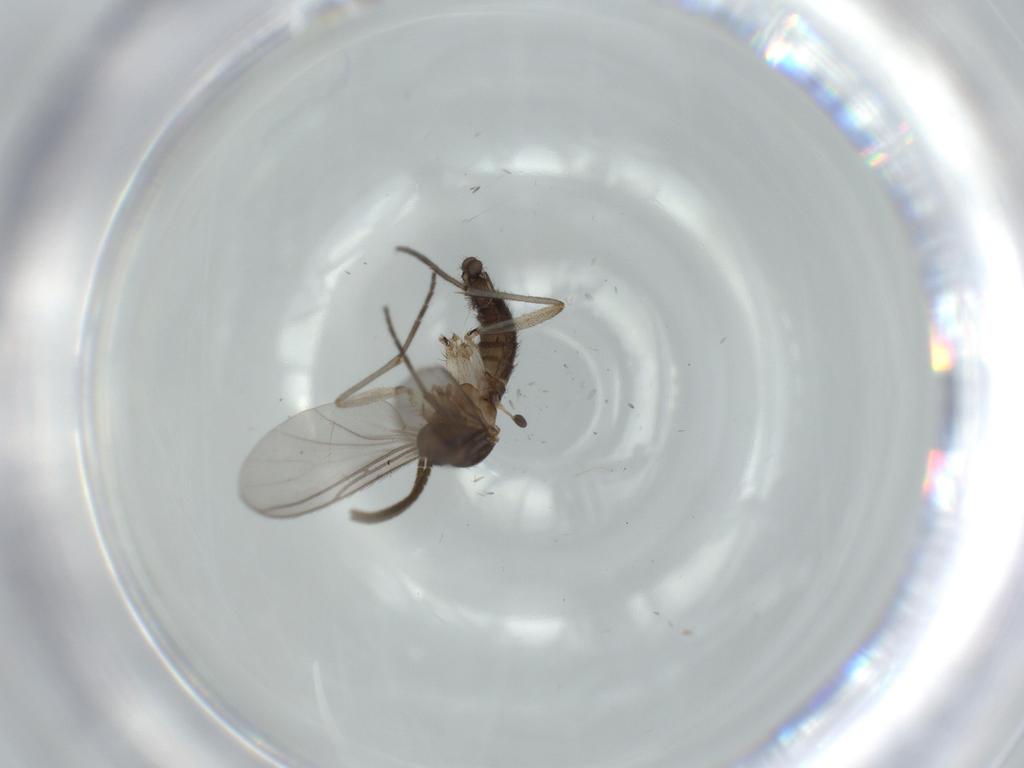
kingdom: Animalia
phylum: Arthropoda
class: Insecta
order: Diptera
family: Sciaridae
